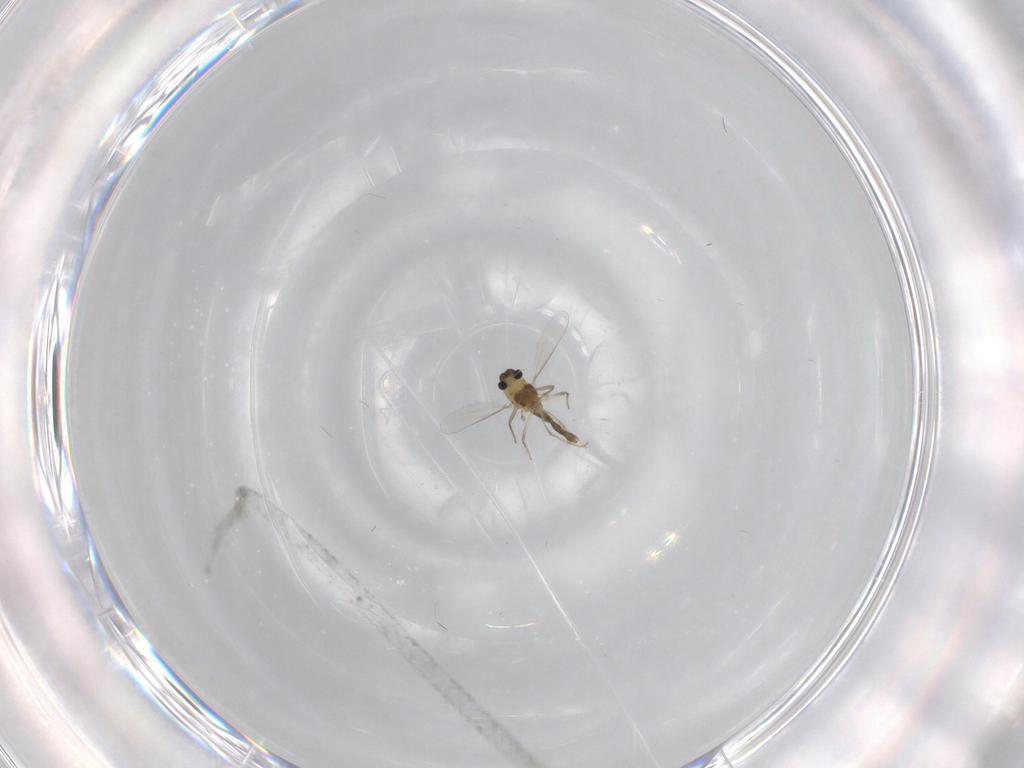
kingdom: Animalia
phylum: Arthropoda
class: Insecta
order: Diptera
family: Chironomidae
